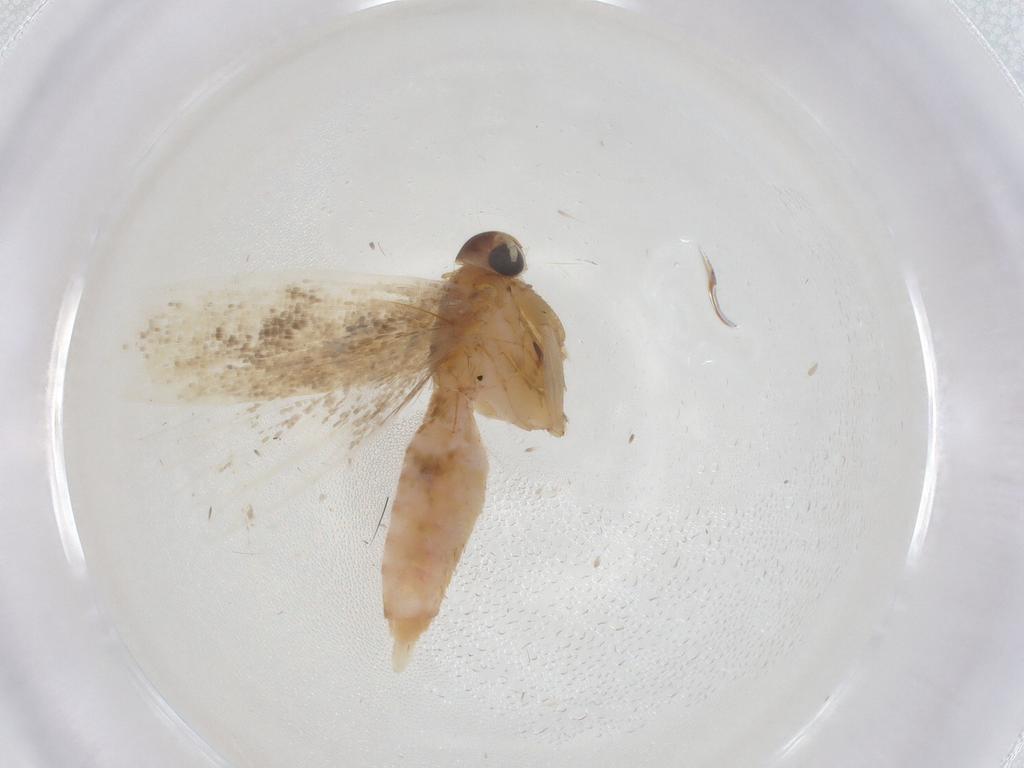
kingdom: Animalia
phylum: Arthropoda
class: Insecta
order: Lepidoptera
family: Gelechiidae
